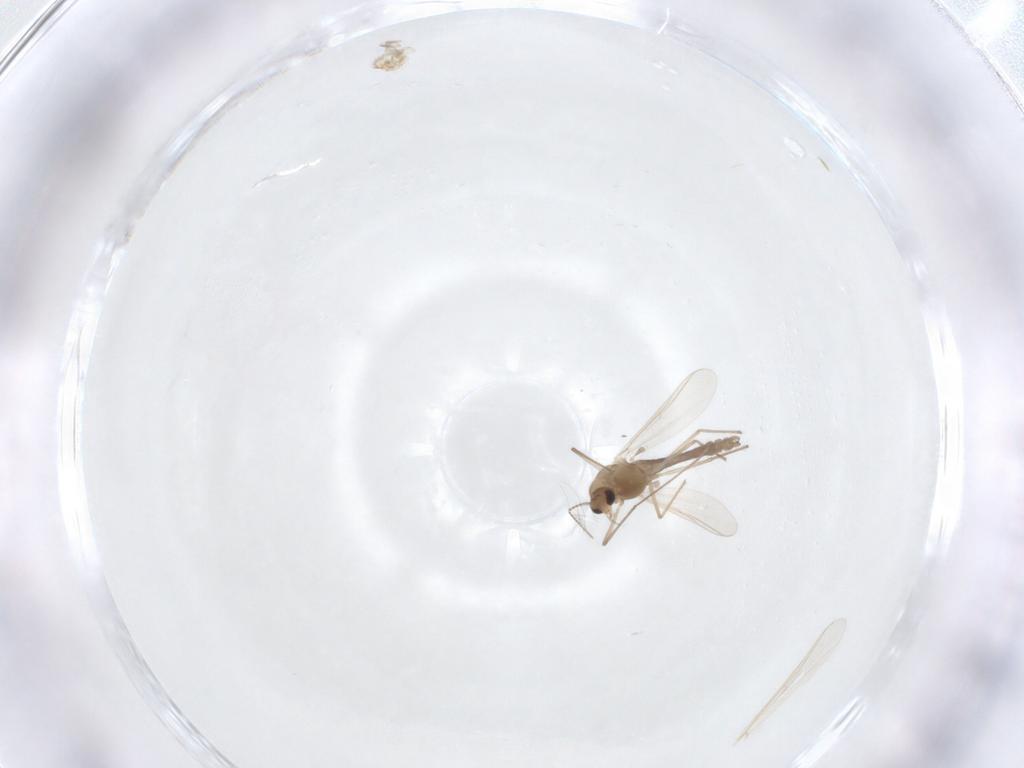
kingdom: Animalia
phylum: Arthropoda
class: Insecta
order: Diptera
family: Chironomidae
